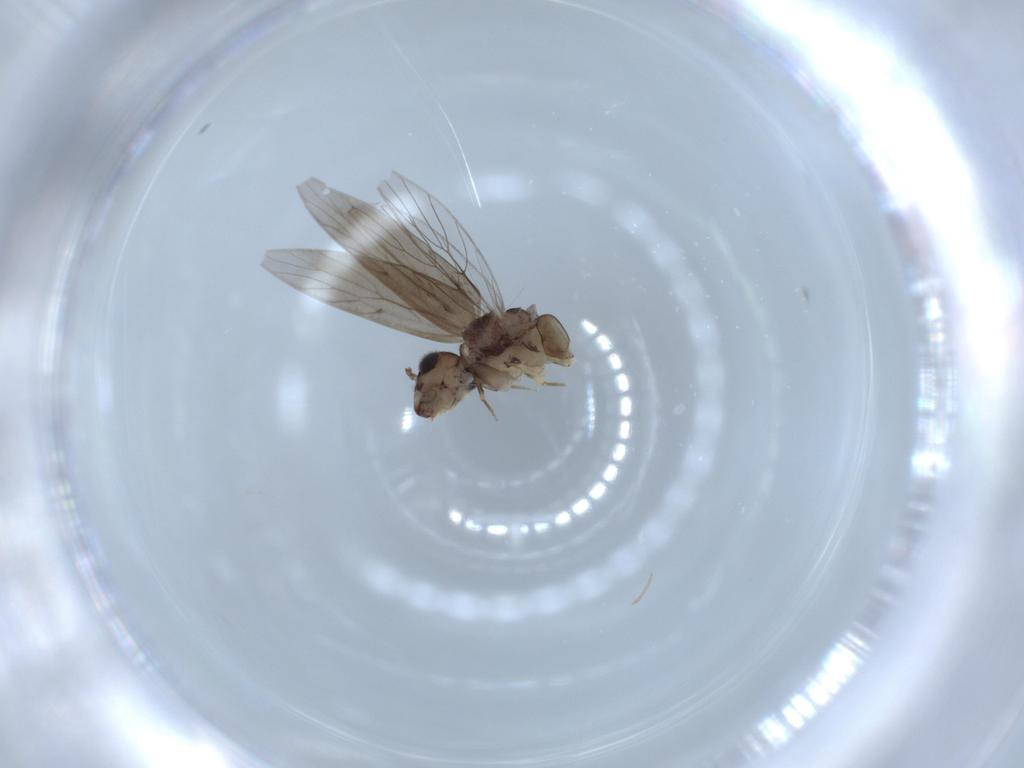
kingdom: Animalia
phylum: Arthropoda
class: Insecta
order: Psocodea
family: Lepidopsocidae
